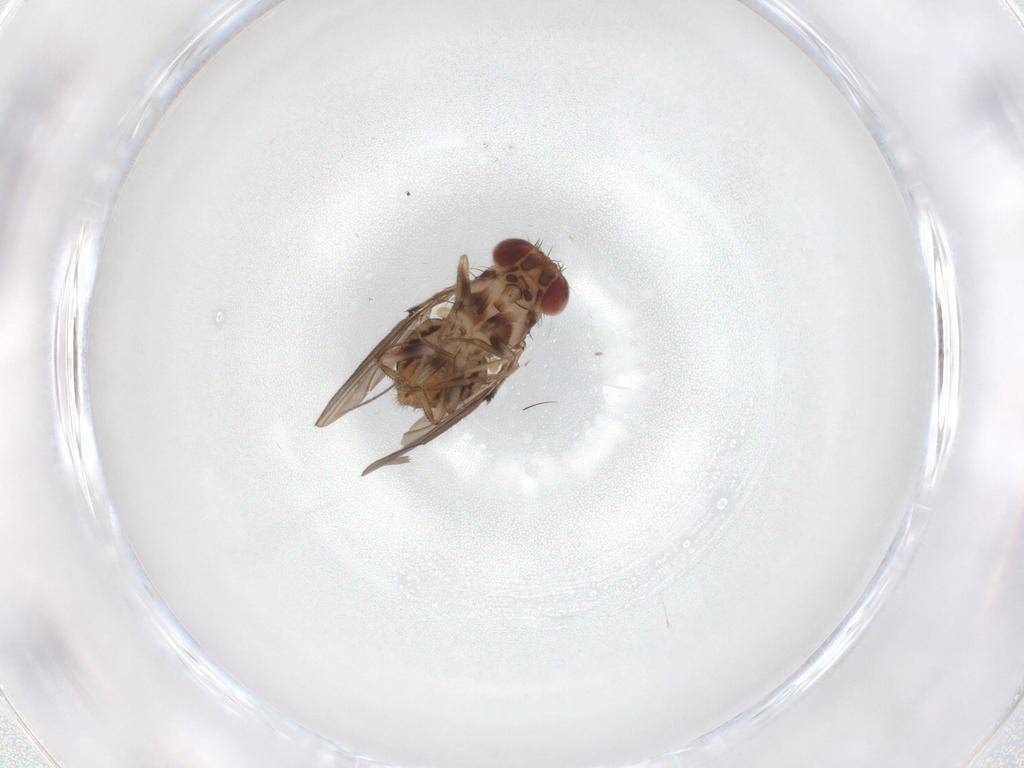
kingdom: Animalia
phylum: Arthropoda
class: Insecta
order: Diptera
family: Drosophilidae
